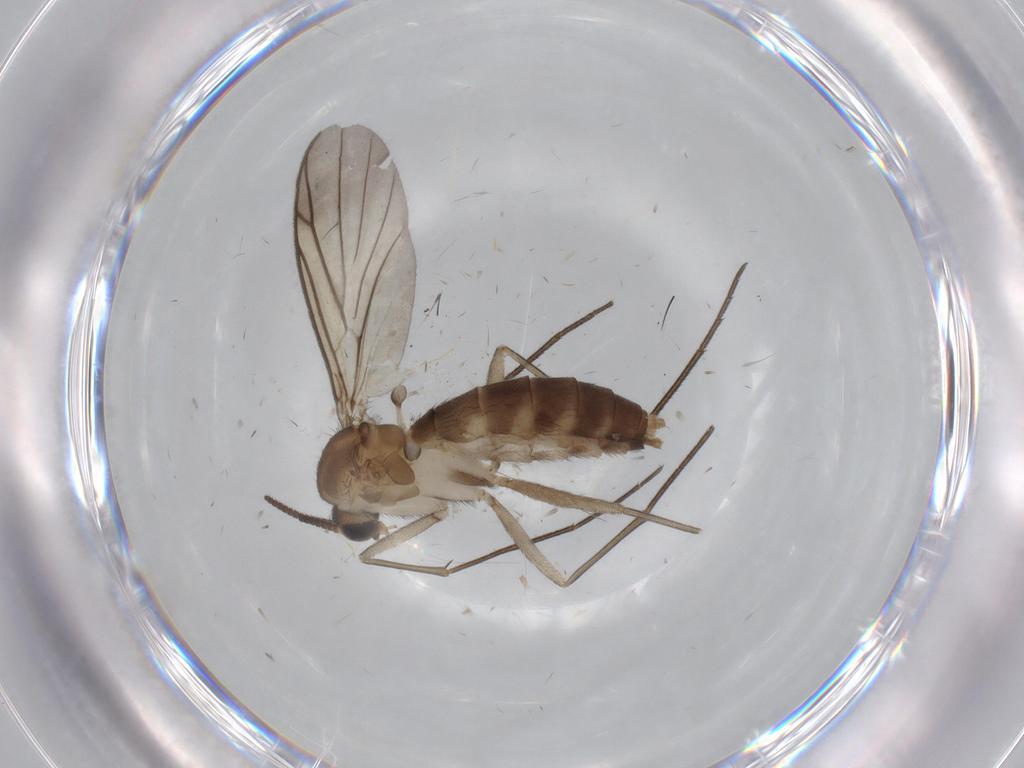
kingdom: Animalia
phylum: Arthropoda
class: Insecta
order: Diptera
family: Mycetophilidae
